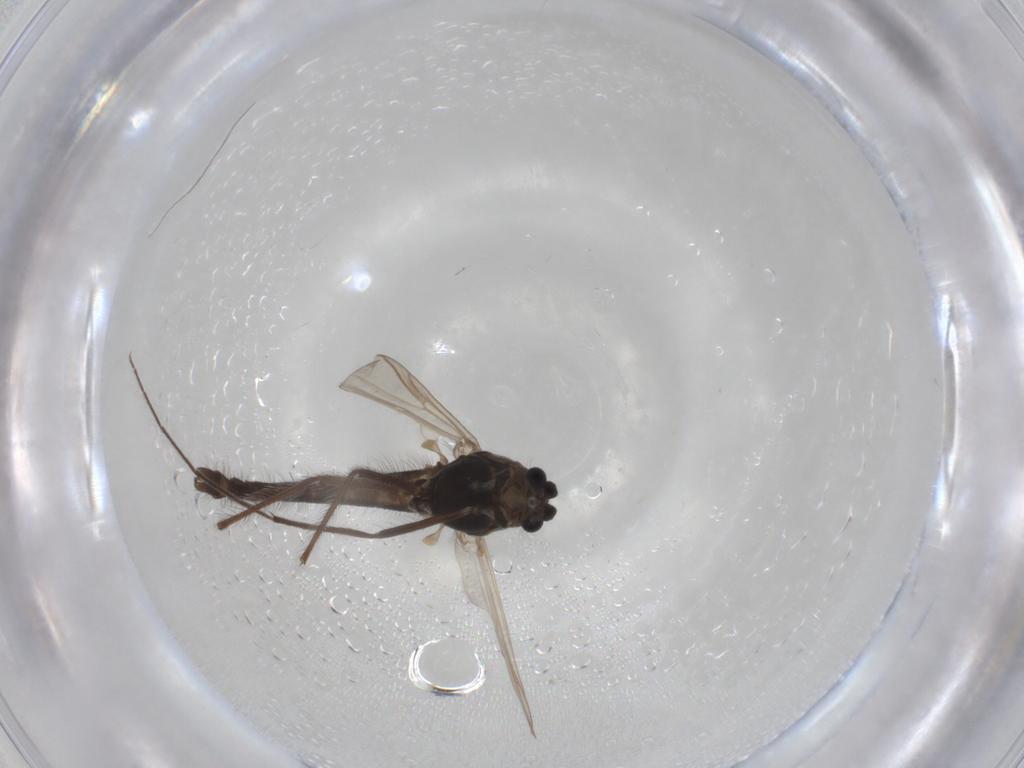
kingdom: Animalia
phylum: Arthropoda
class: Insecta
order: Diptera
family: Chironomidae
